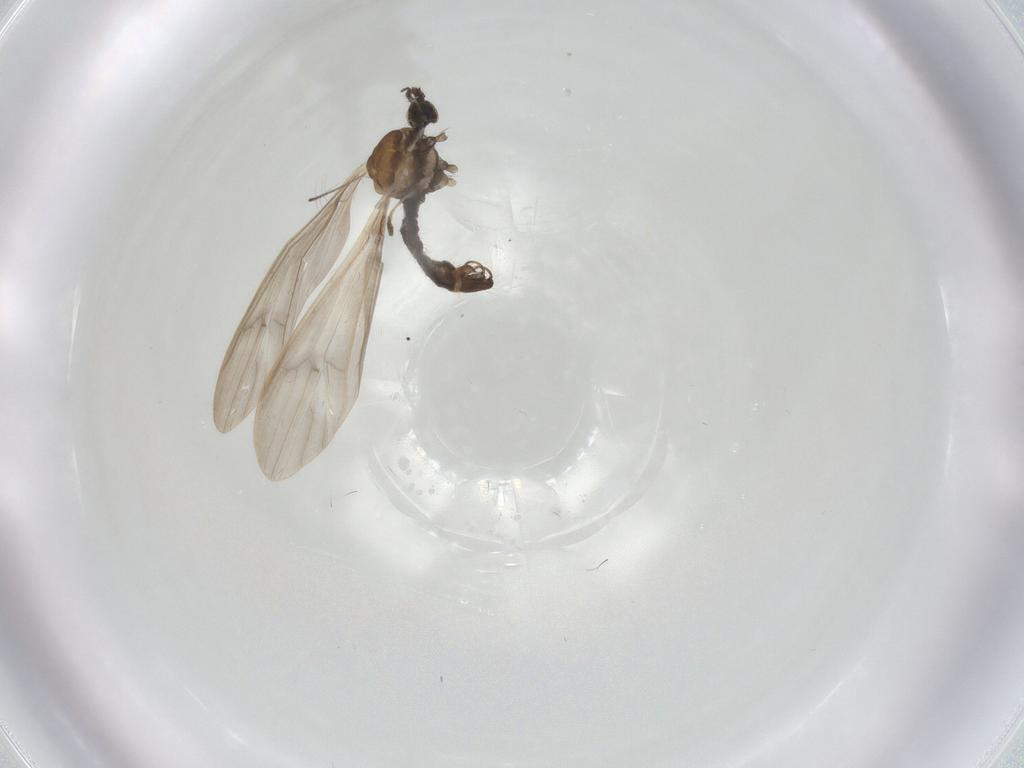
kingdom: Animalia
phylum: Arthropoda
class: Insecta
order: Diptera
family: Limoniidae
